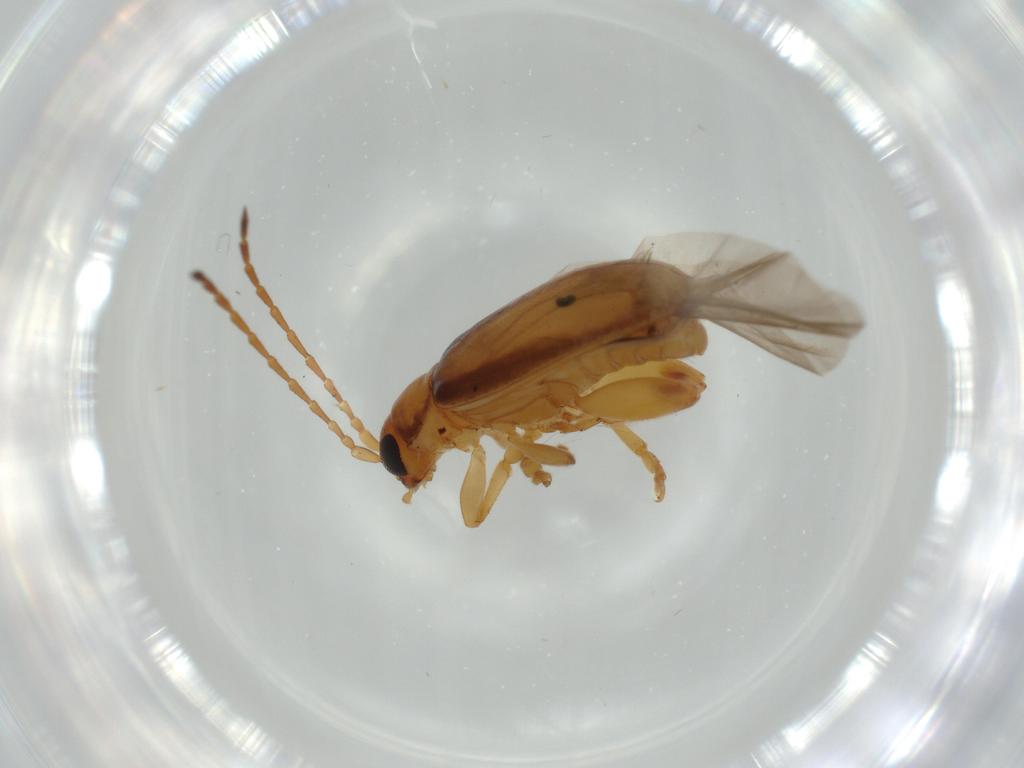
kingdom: Animalia
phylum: Arthropoda
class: Insecta
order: Coleoptera
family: Chrysomelidae
